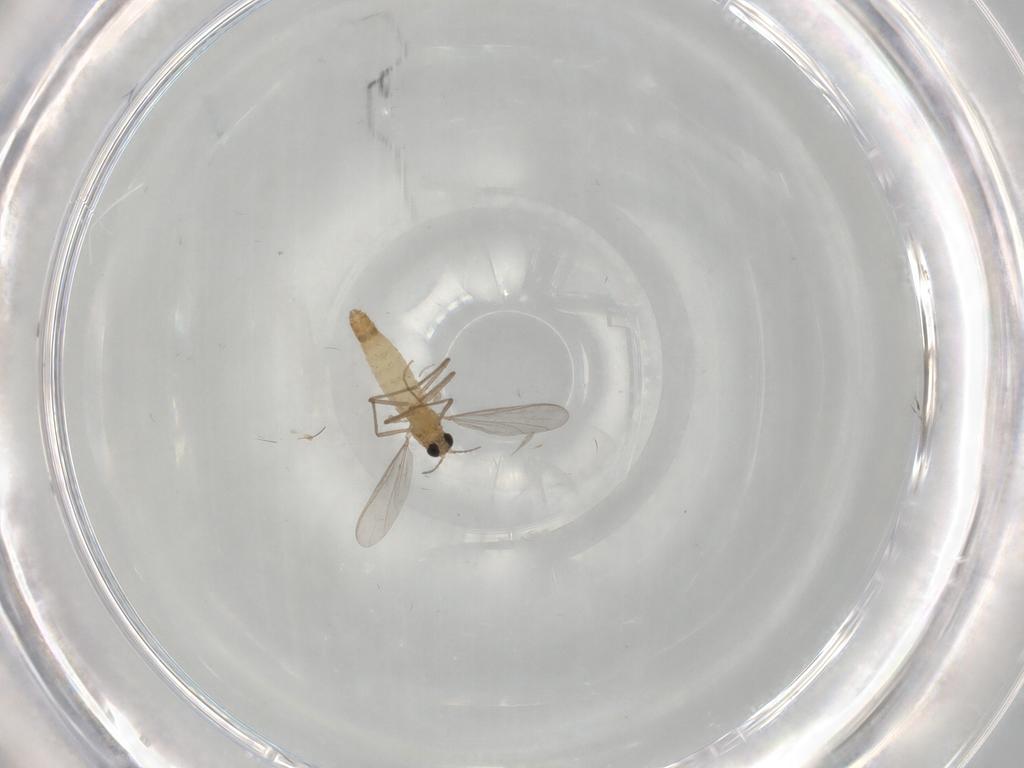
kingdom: Animalia
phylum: Arthropoda
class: Insecta
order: Diptera
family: Chironomidae
